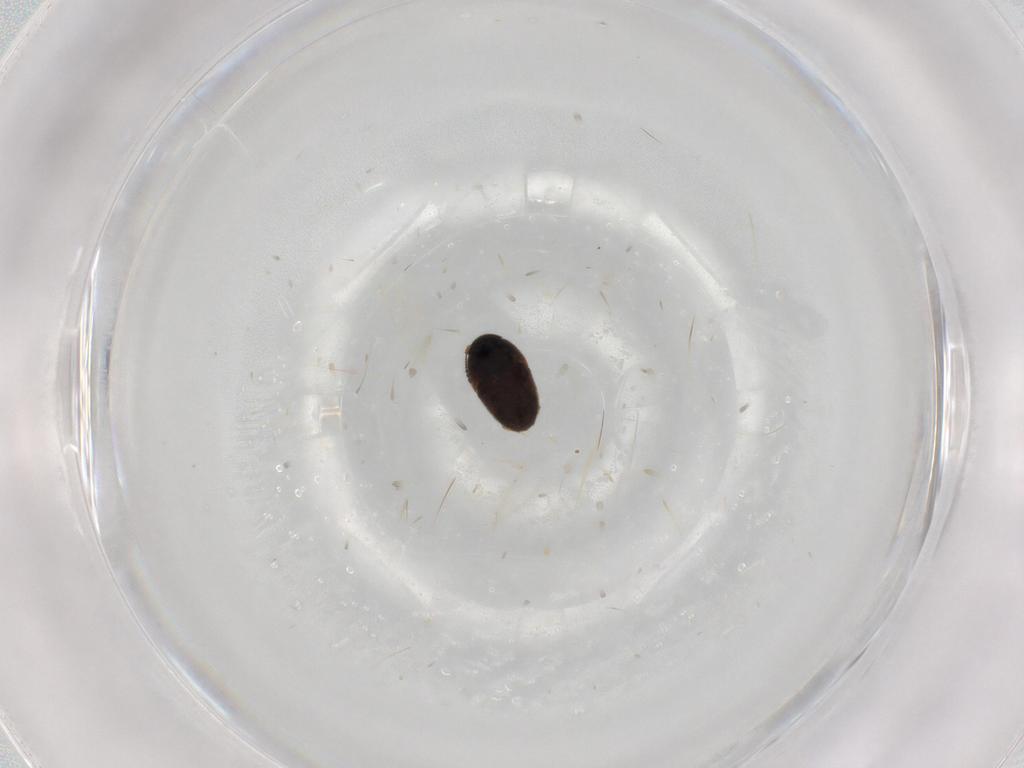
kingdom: Animalia
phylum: Arthropoda
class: Insecta
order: Coleoptera
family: Ptiliidae
